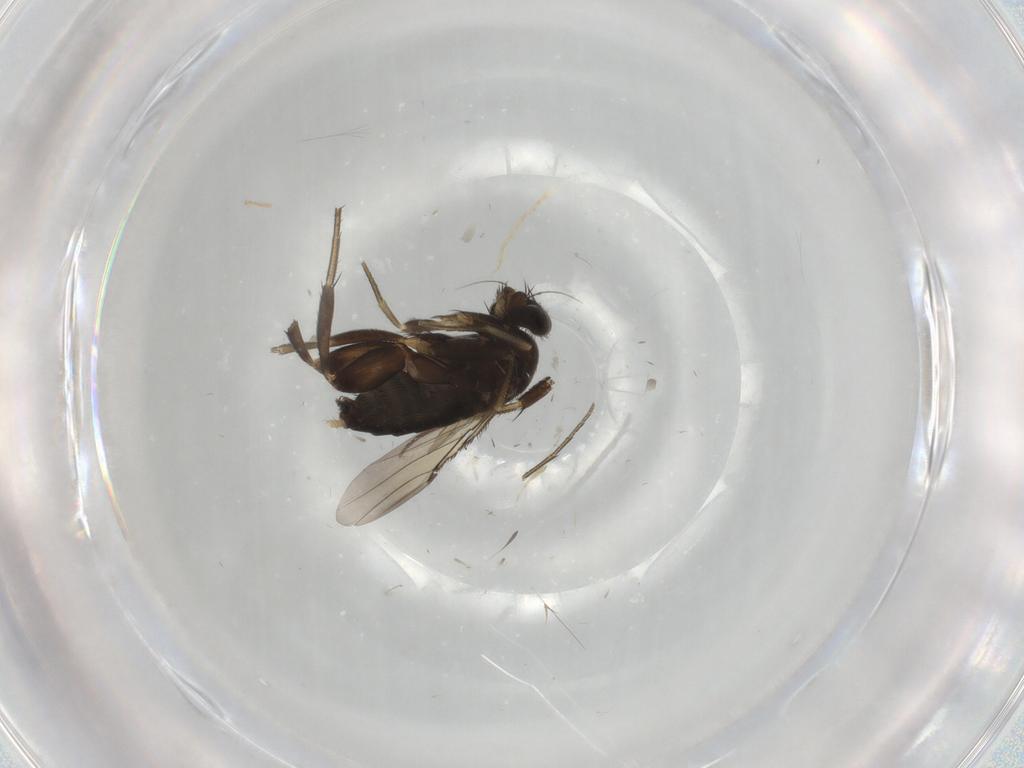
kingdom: Animalia
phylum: Arthropoda
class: Insecta
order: Diptera
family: Phoridae
